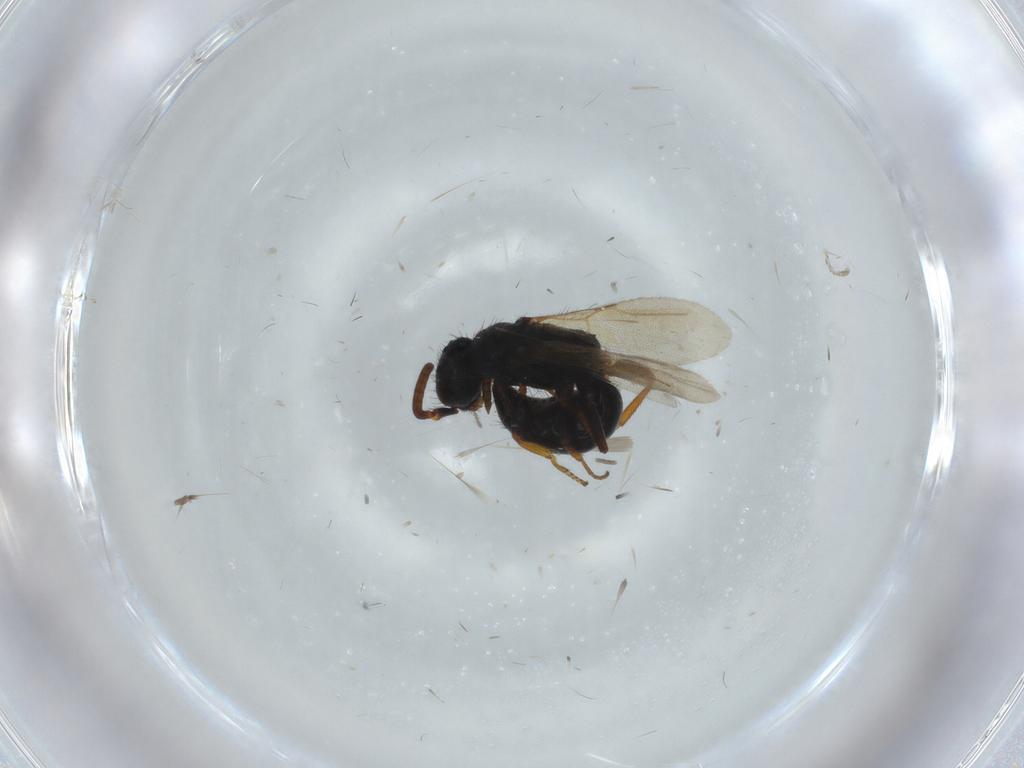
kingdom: Animalia
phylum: Arthropoda
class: Insecta
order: Hymenoptera
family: Bethylidae
